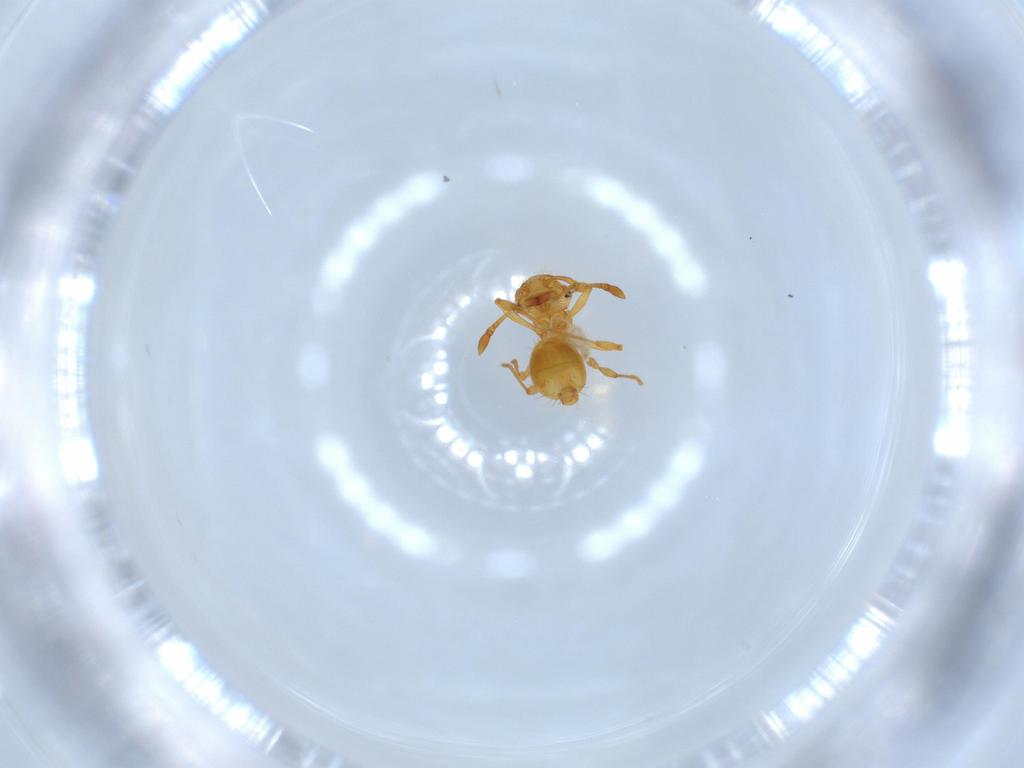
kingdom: Animalia
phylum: Arthropoda
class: Insecta
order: Hymenoptera
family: Formicidae
